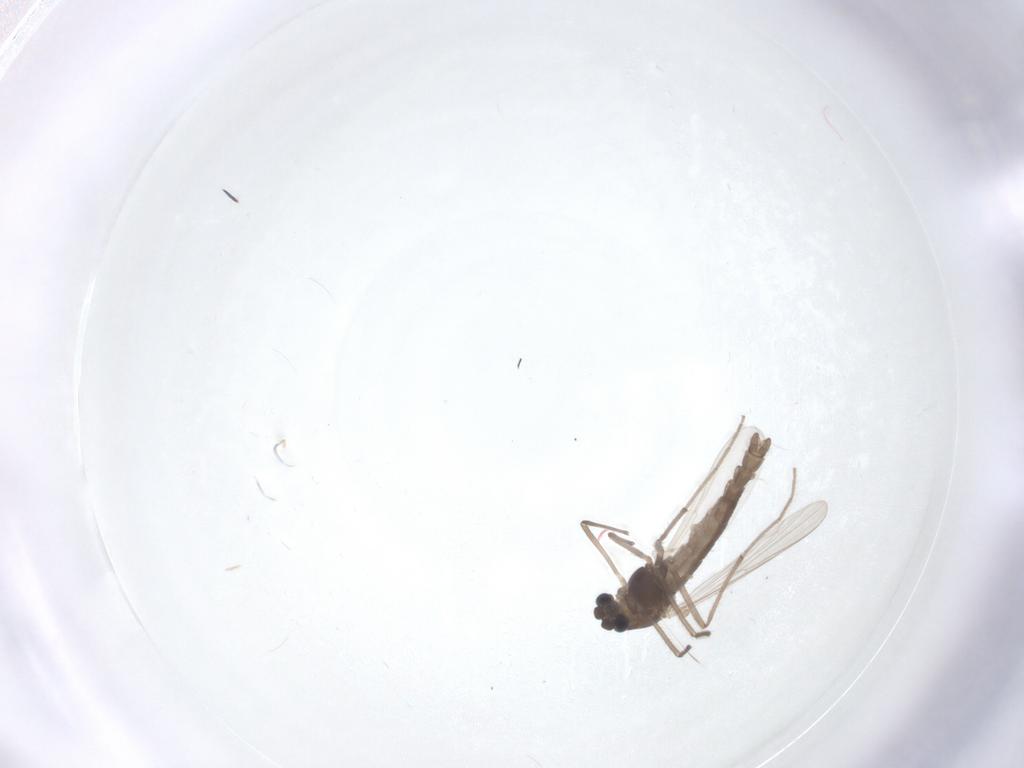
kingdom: Animalia
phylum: Arthropoda
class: Insecta
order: Diptera
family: Chironomidae
